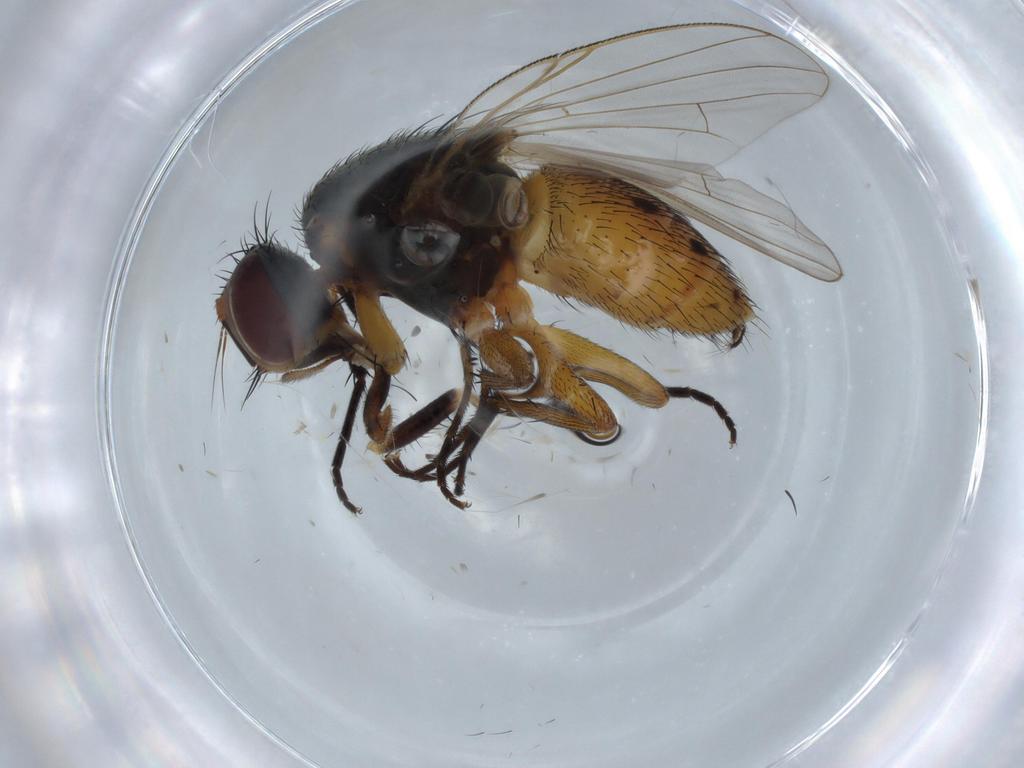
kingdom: Animalia
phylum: Arthropoda
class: Insecta
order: Diptera
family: Muscidae
